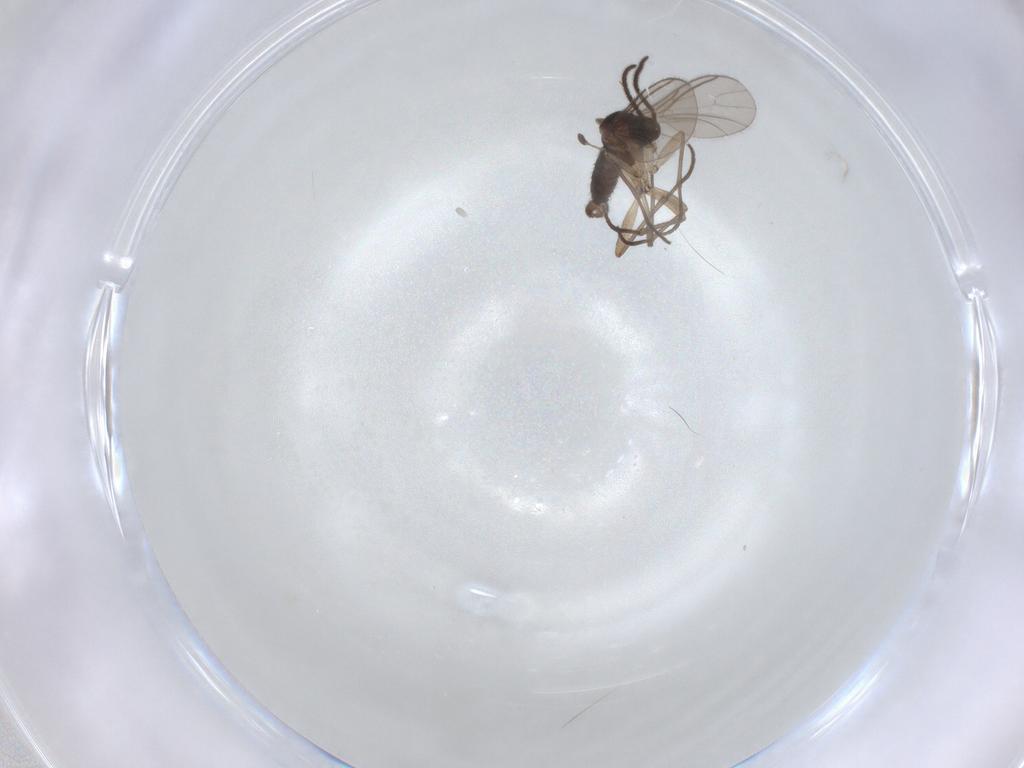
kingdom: Animalia
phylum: Arthropoda
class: Insecta
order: Diptera
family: Sciaridae
